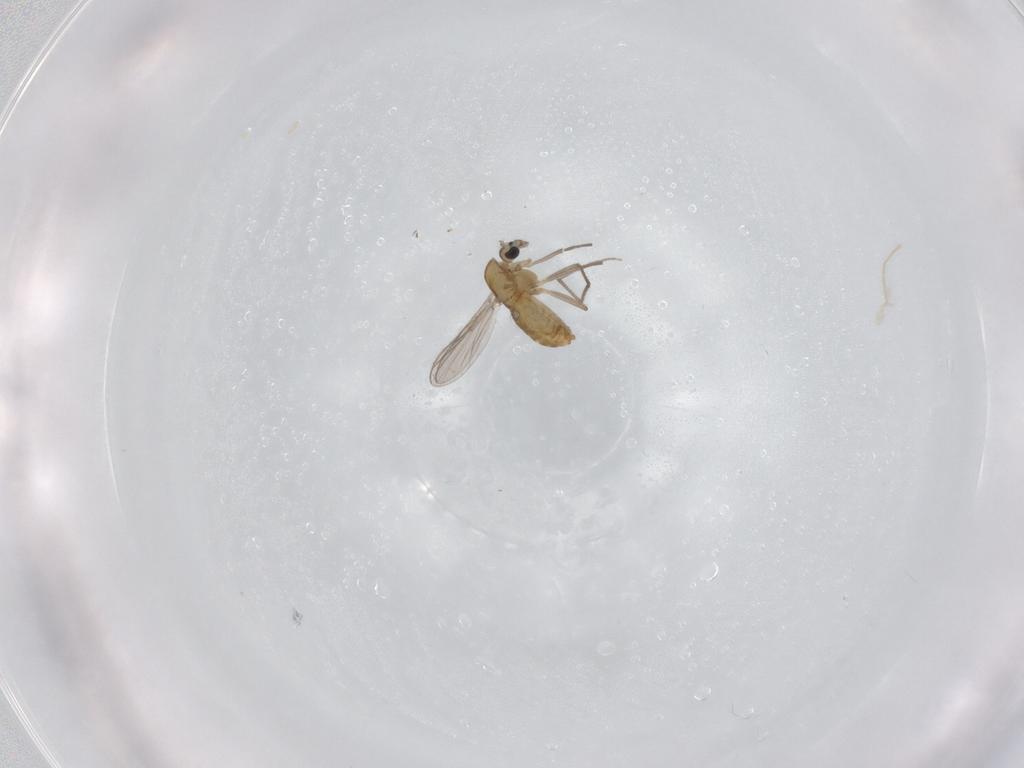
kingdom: Animalia
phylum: Arthropoda
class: Insecta
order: Diptera
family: Chironomidae
